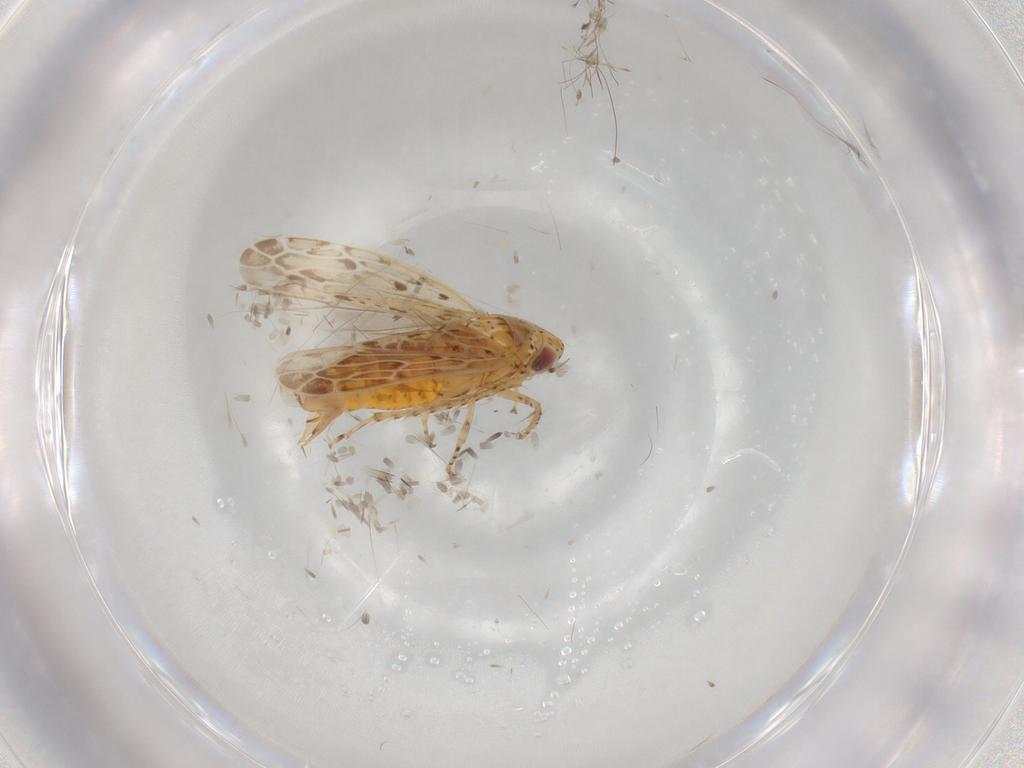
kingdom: Animalia
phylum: Arthropoda
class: Insecta
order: Hemiptera
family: Cicadellidae
